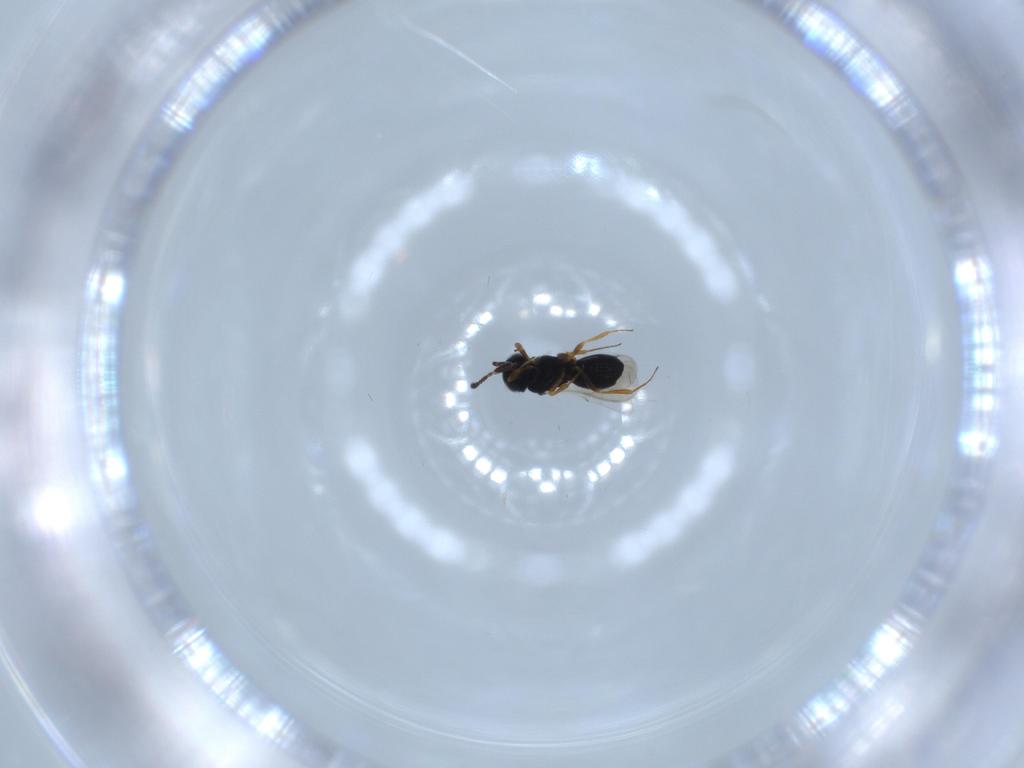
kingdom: Animalia
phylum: Arthropoda
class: Insecta
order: Hymenoptera
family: Scelionidae
